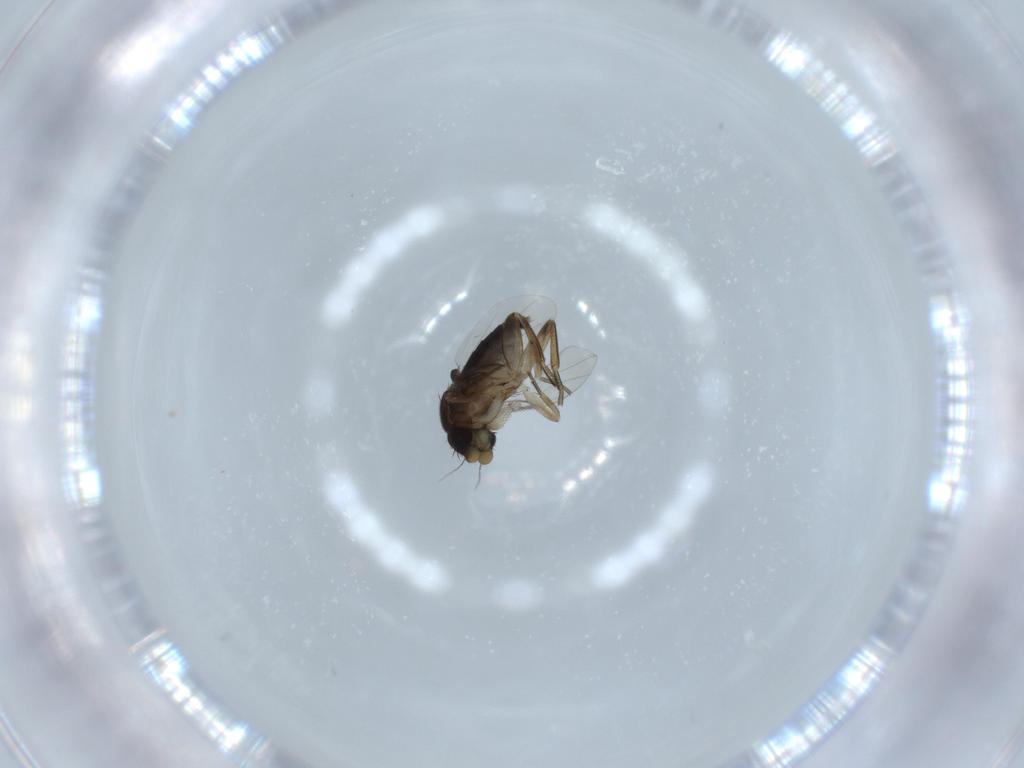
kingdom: Animalia
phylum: Arthropoda
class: Insecta
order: Diptera
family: Phoridae
